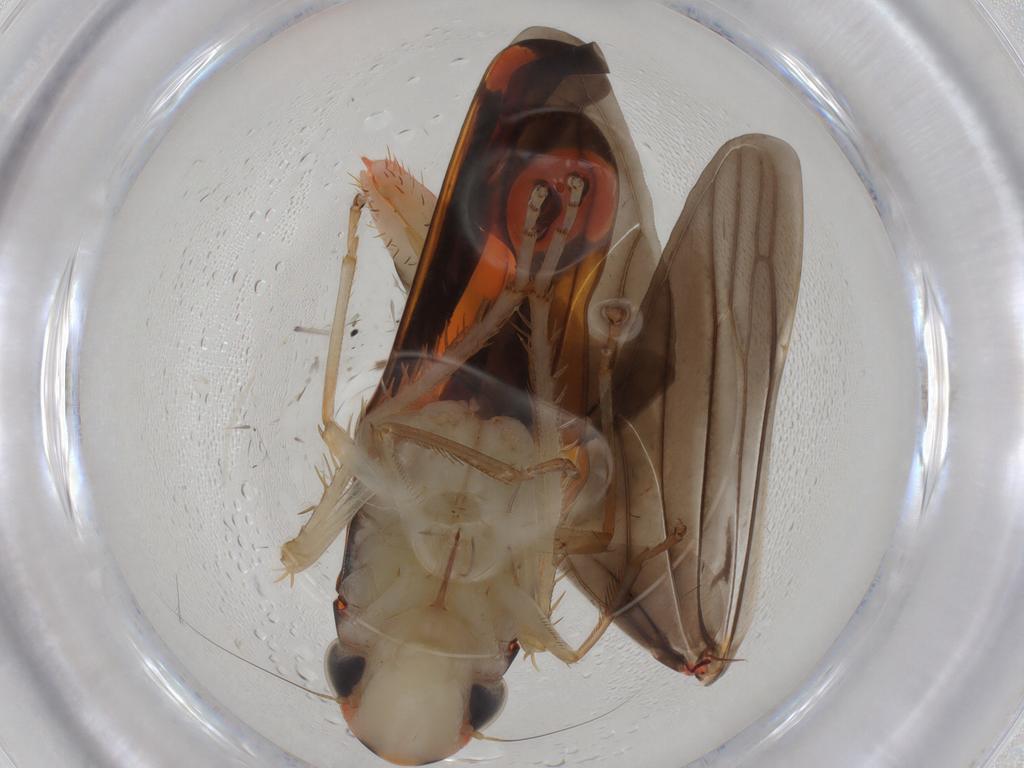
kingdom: Animalia
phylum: Arthropoda
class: Insecta
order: Hemiptera
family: Cicadellidae
